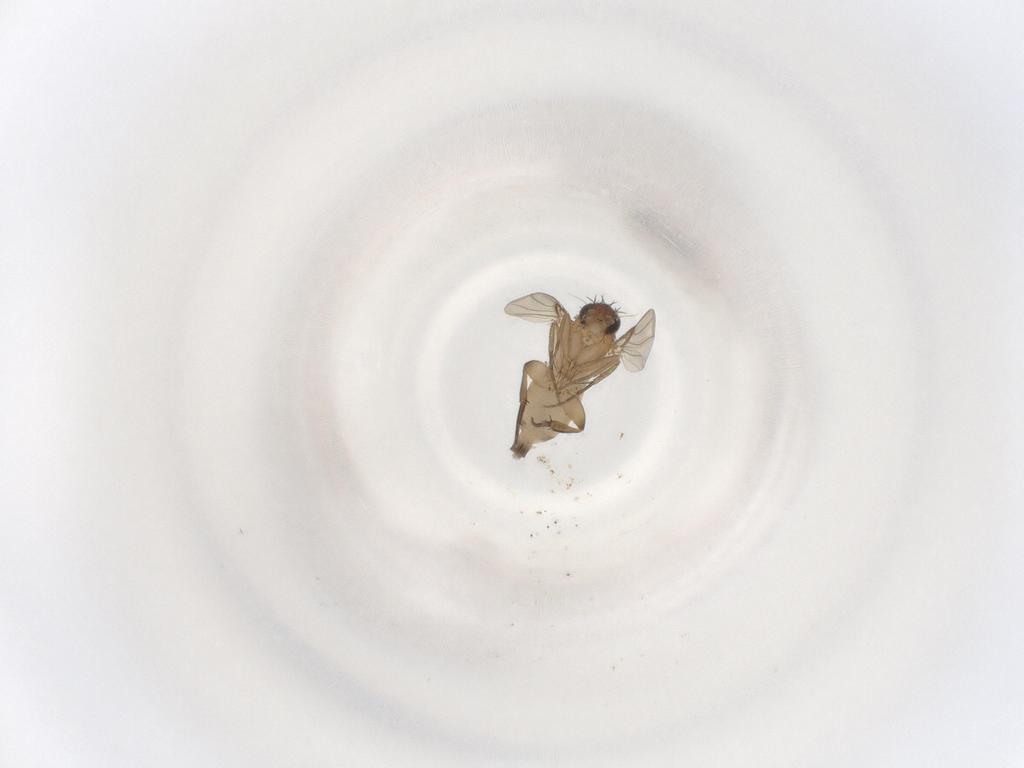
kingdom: Animalia
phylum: Arthropoda
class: Insecta
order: Diptera
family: Phoridae
